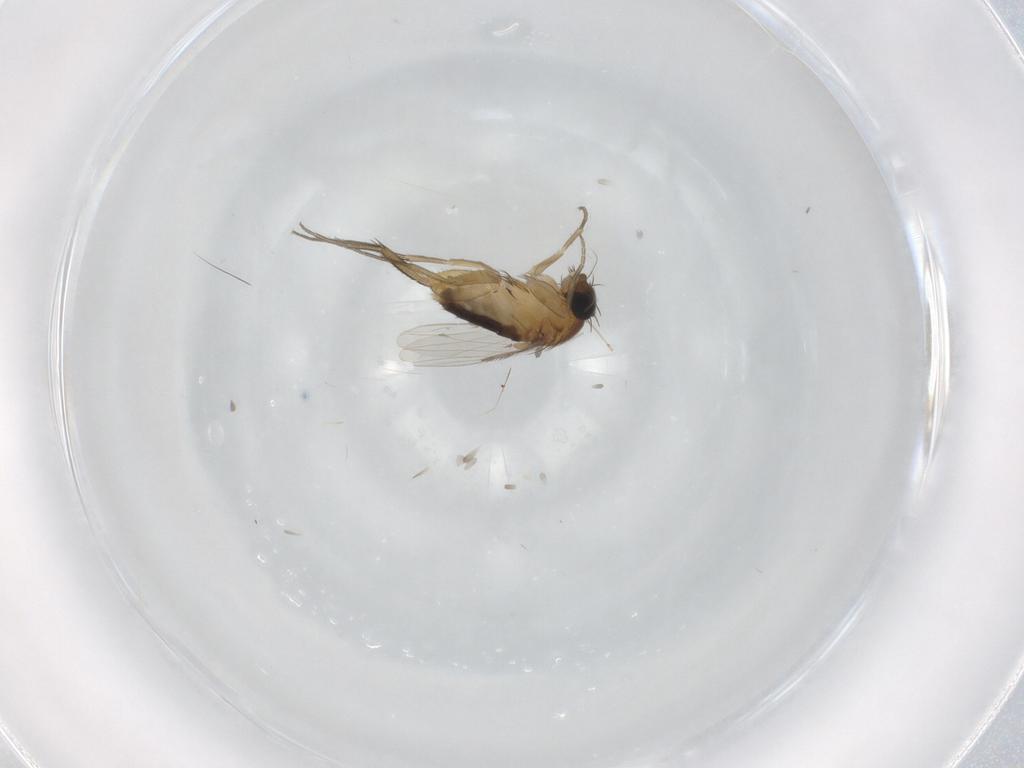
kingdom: Animalia
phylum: Arthropoda
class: Insecta
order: Diptera
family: Phoridae
